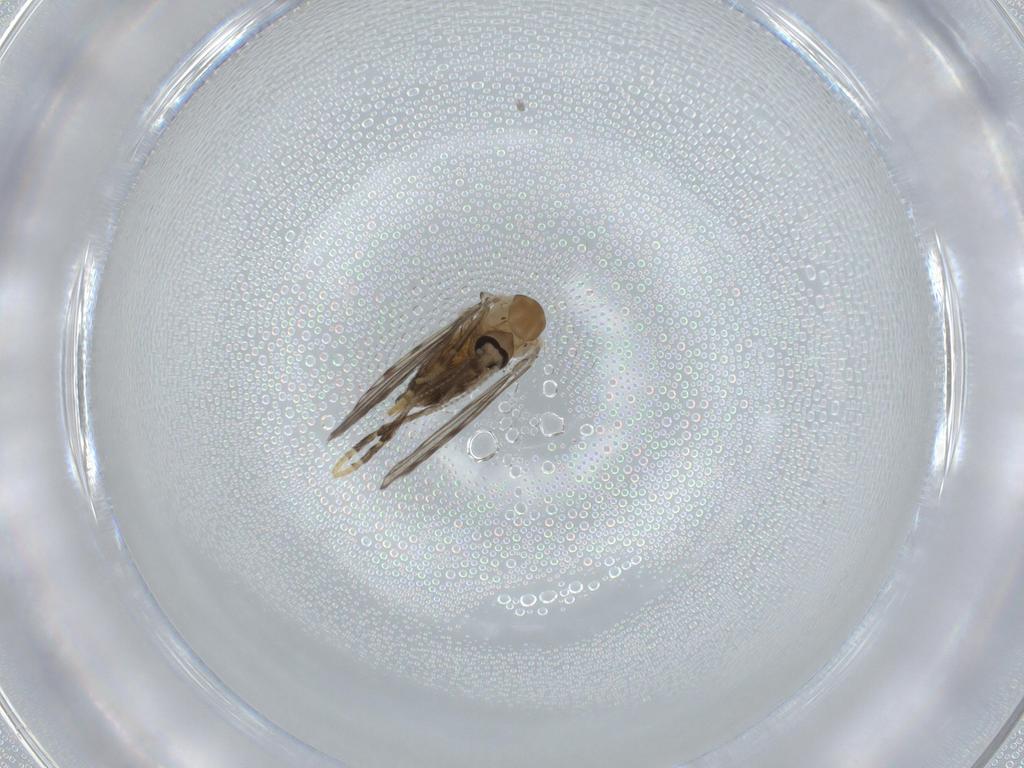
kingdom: Animalia
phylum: Arthropoda
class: Insecta
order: Diptera
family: Psychodidae
